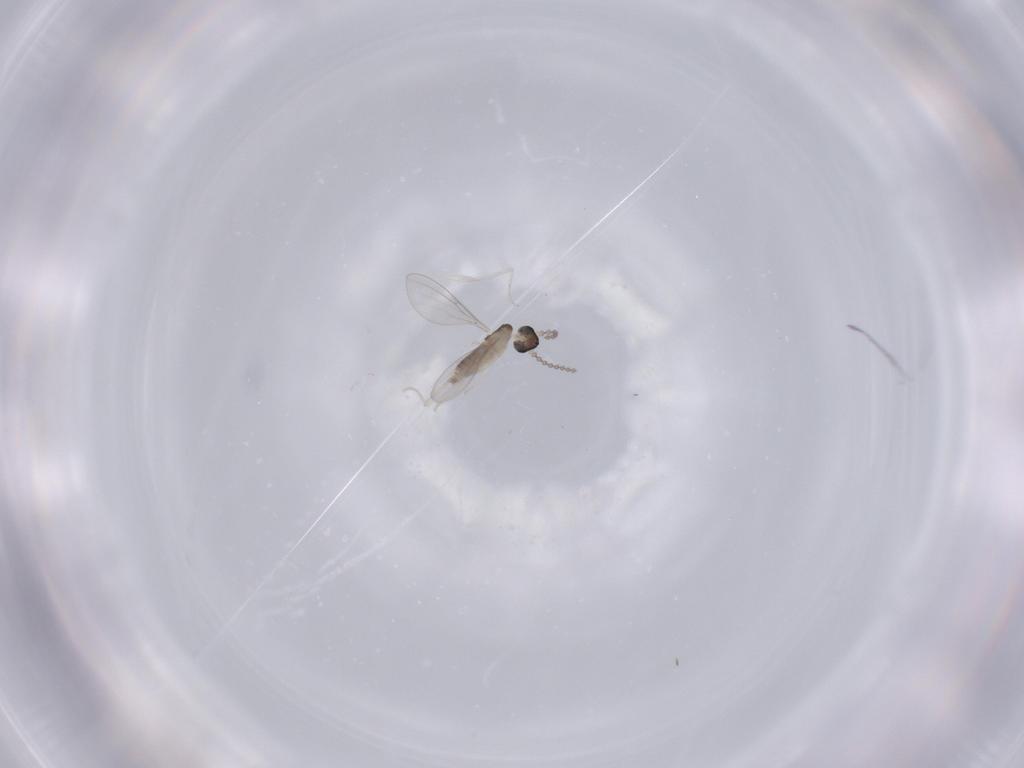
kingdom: Animalia
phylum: Arthropoda
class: Insecta
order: Diptera
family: Cecidomyiidae
